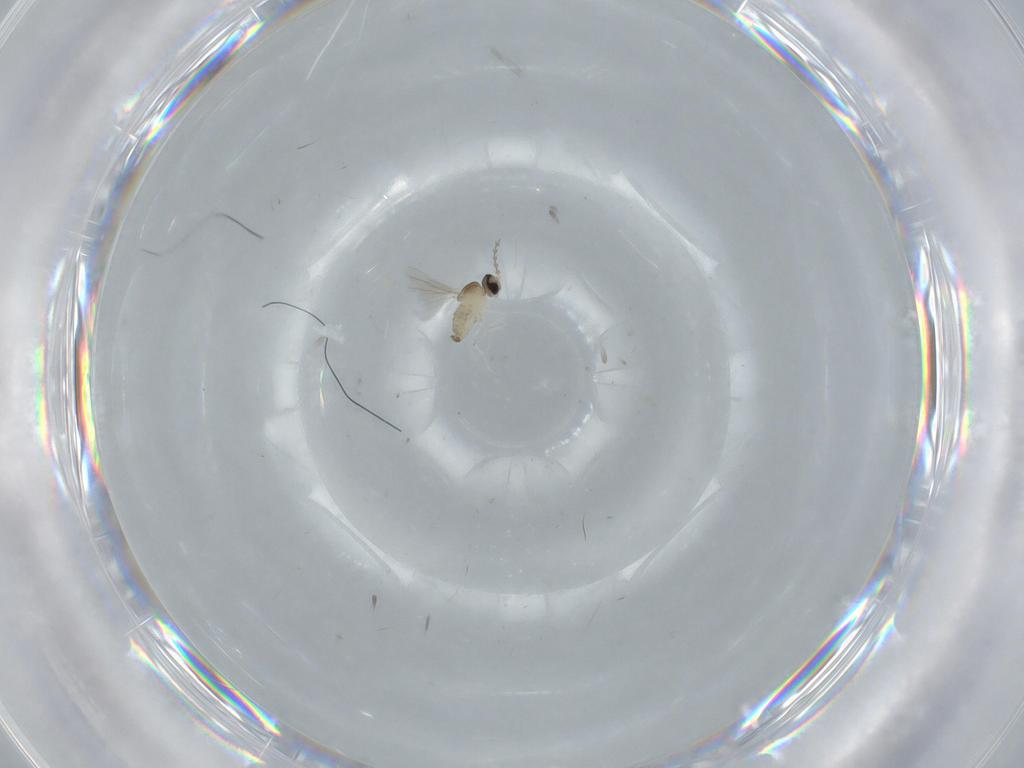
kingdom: Animalia
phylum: Arthropoda
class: Insecta
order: Diptera
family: Cecidomyiidae
